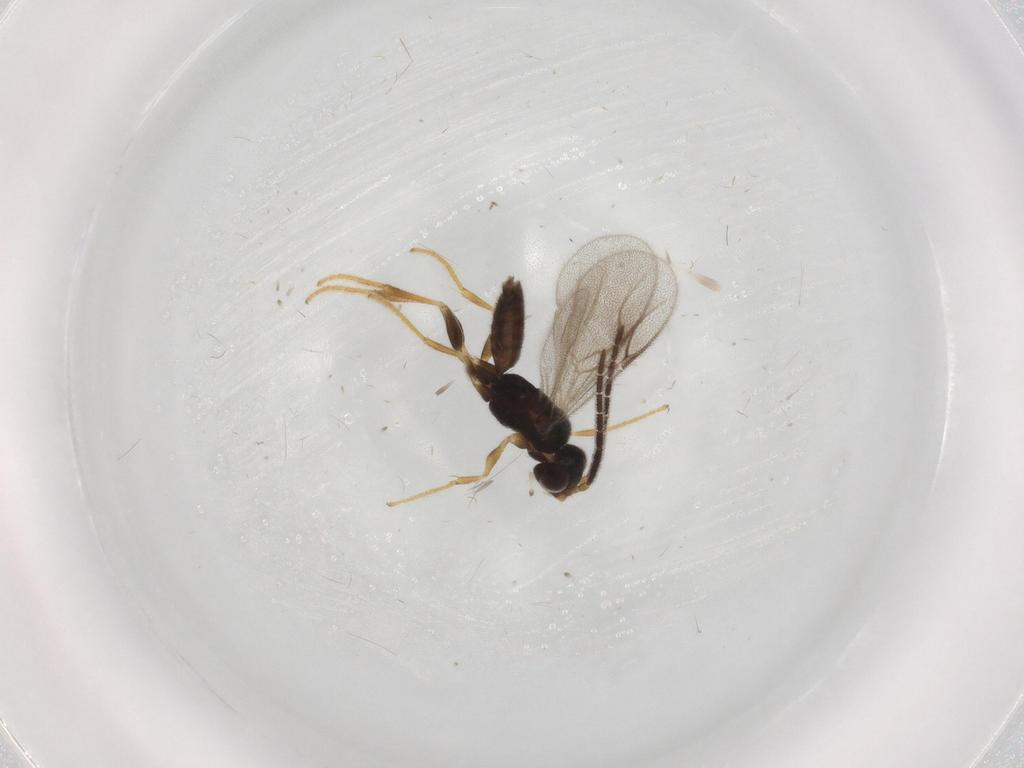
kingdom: Animalia
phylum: Arthropoda
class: Insecta
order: Hymenoptera
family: Dryinidae
